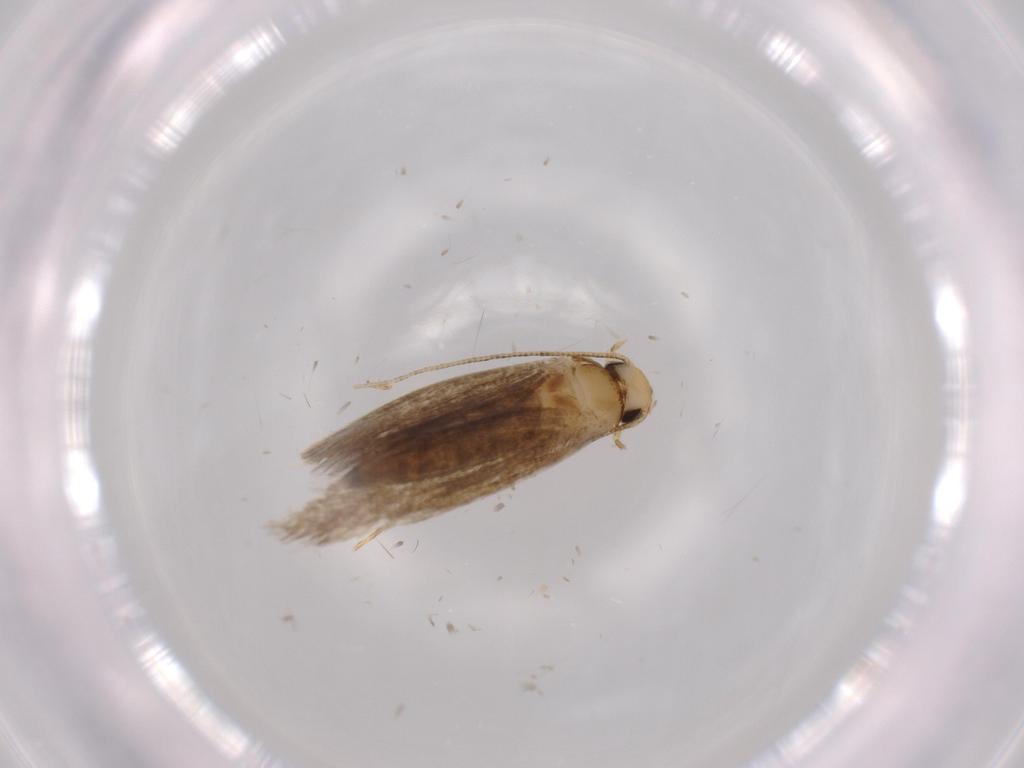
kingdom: Animalia
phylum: Arthropoda
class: Insecta
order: Lepidoptera
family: Tineidae
